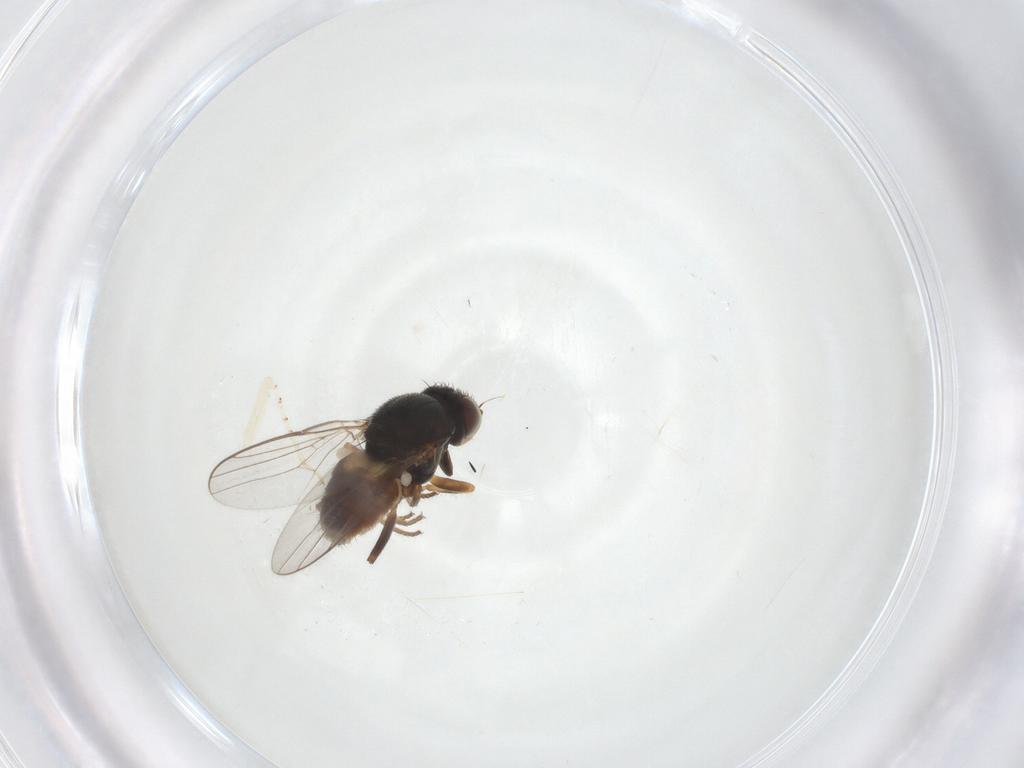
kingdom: Animalia
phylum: Arthropoda
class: Insecta
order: Diptera
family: Chloropidae
